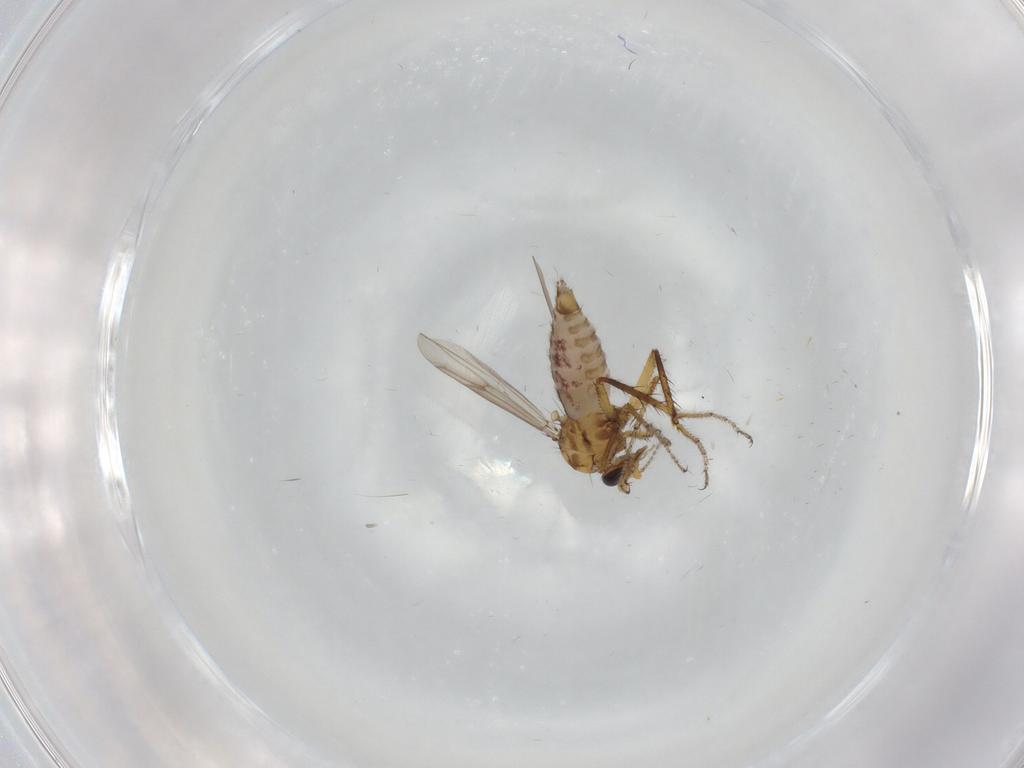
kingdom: Animalia
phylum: Arthropoda
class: Insecta
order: Diptera
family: Ceratopogonidae
